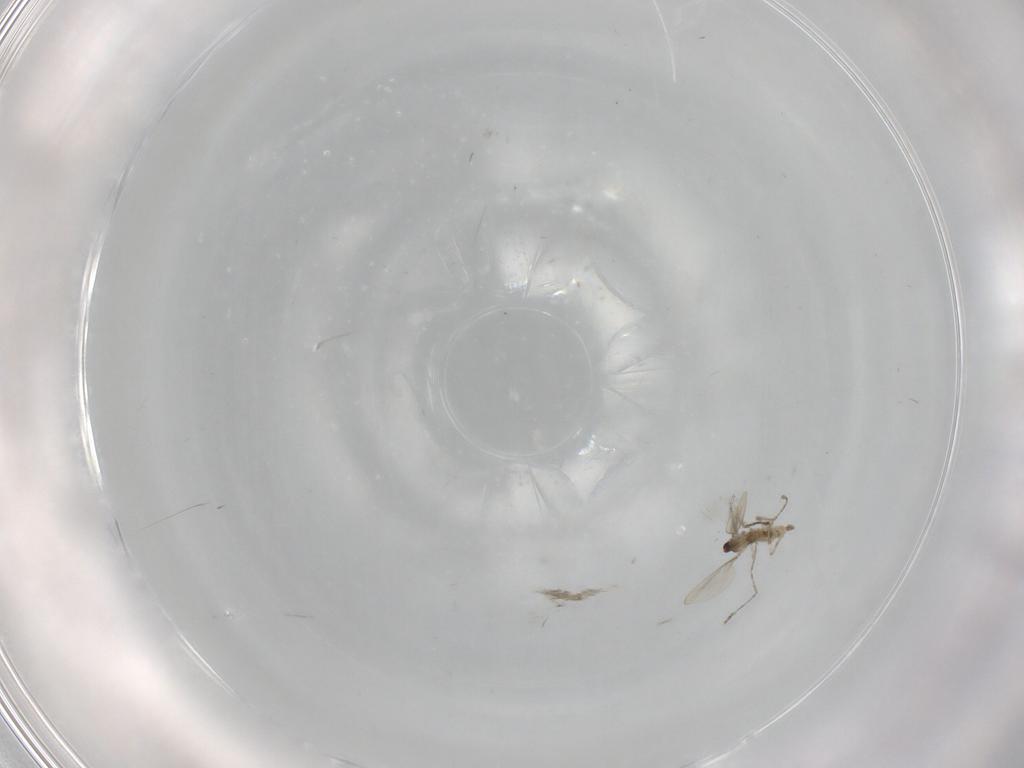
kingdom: Animalia
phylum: Arthropoda
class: Insecta
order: Diptera
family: Cecidomyiidae
